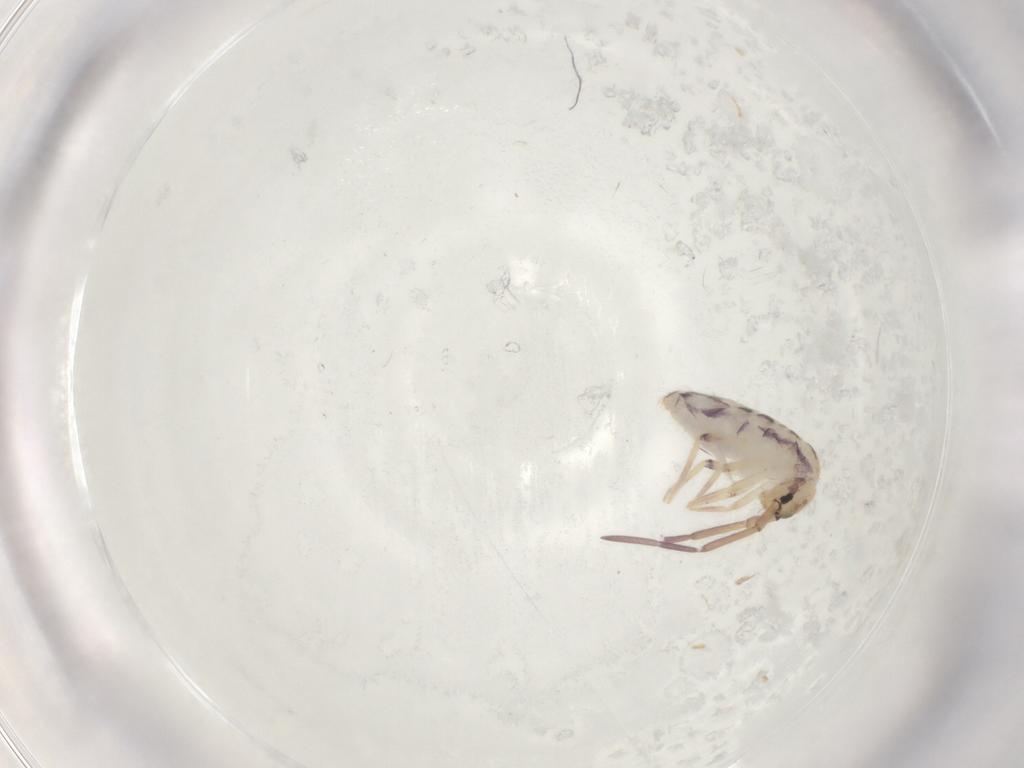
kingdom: Animalia
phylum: Arthropoda
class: Collembola
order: Entomobryomorpha
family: Entomobryidae
